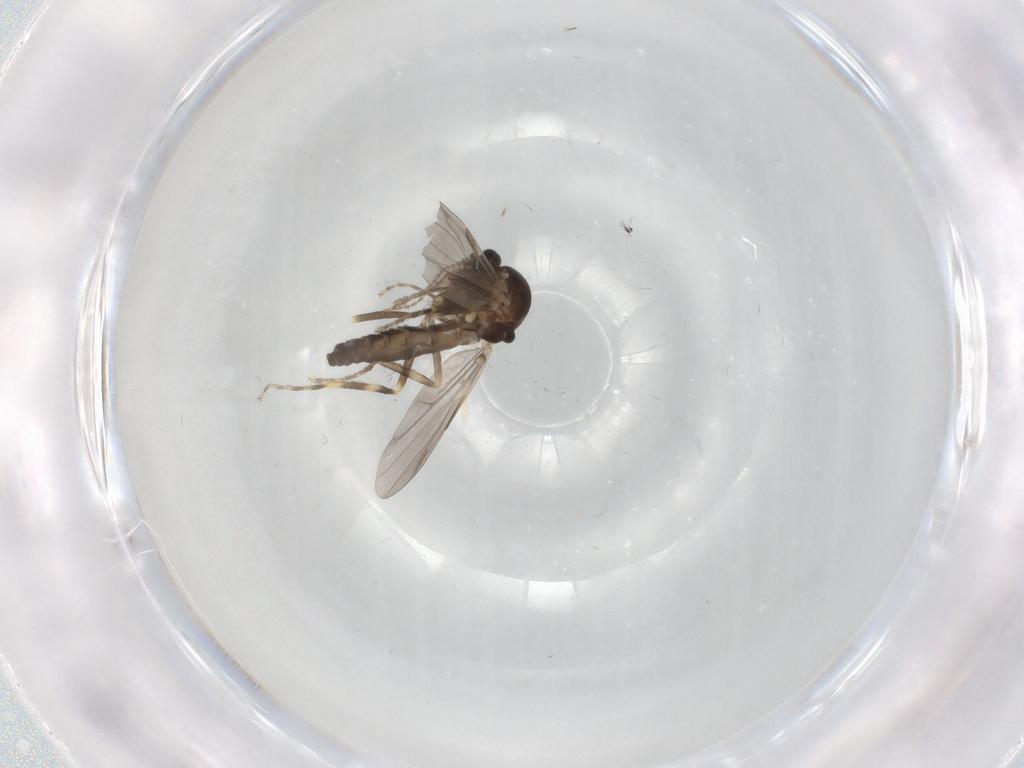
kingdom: Animalia
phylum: Arthropoda
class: Insecta
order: Diptera
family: Ceratopogonidae
